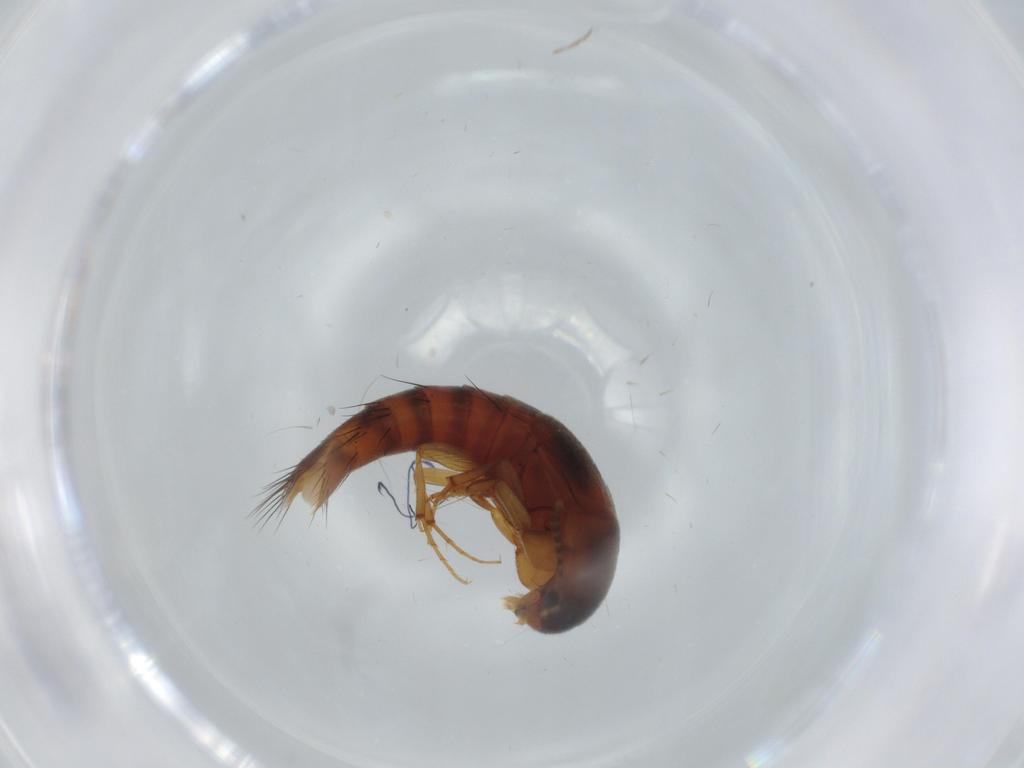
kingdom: Animalia
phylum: Arthropoda
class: Insecta
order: Coleoptera
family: Staphylinidae
